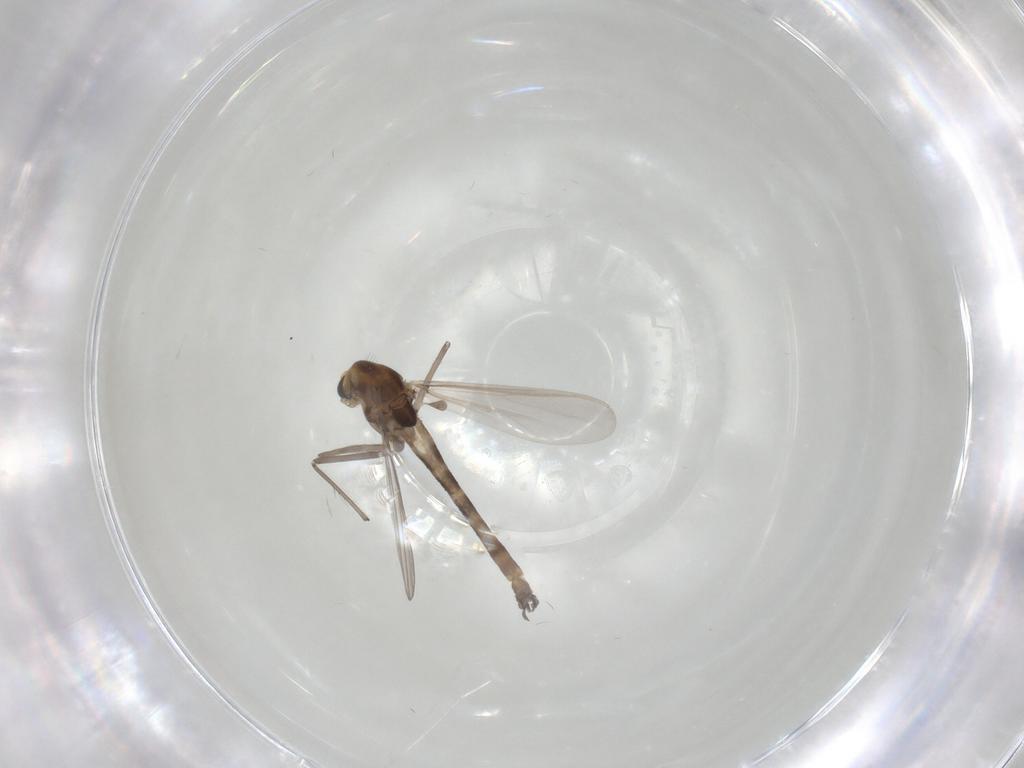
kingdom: Animalia
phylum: Arthropoda
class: Insecta
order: Diptera
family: Chironomidae
